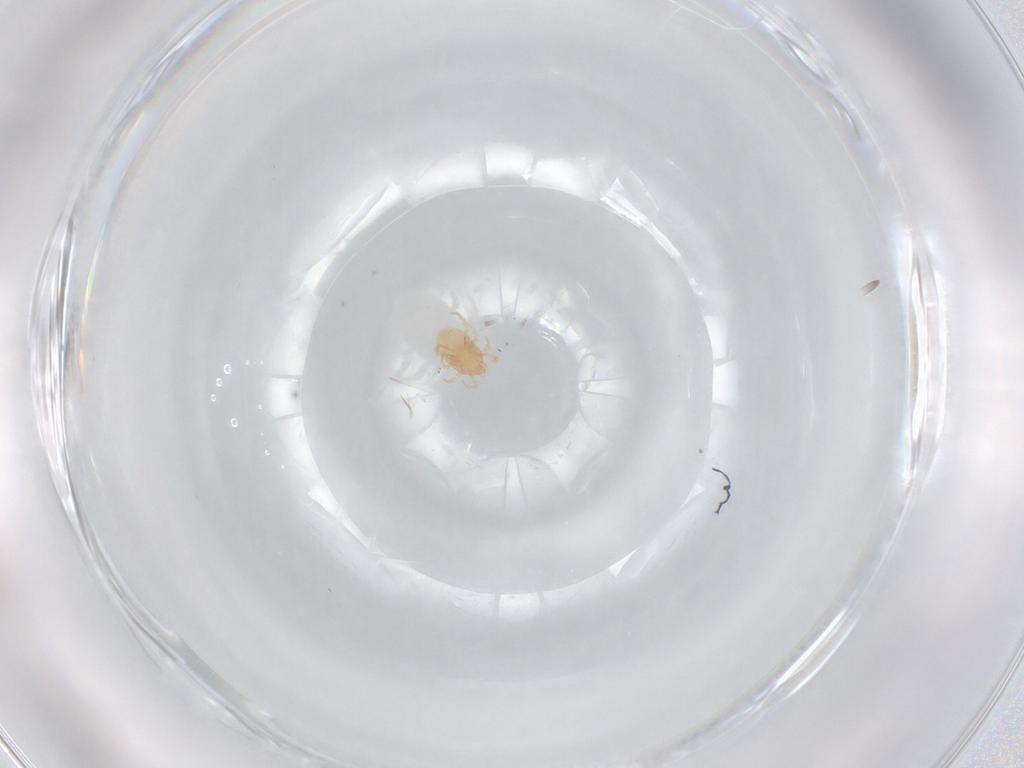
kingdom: Animalia
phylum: Arthropoda
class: Arachnida
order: Mesostigmata
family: Melicharidae
